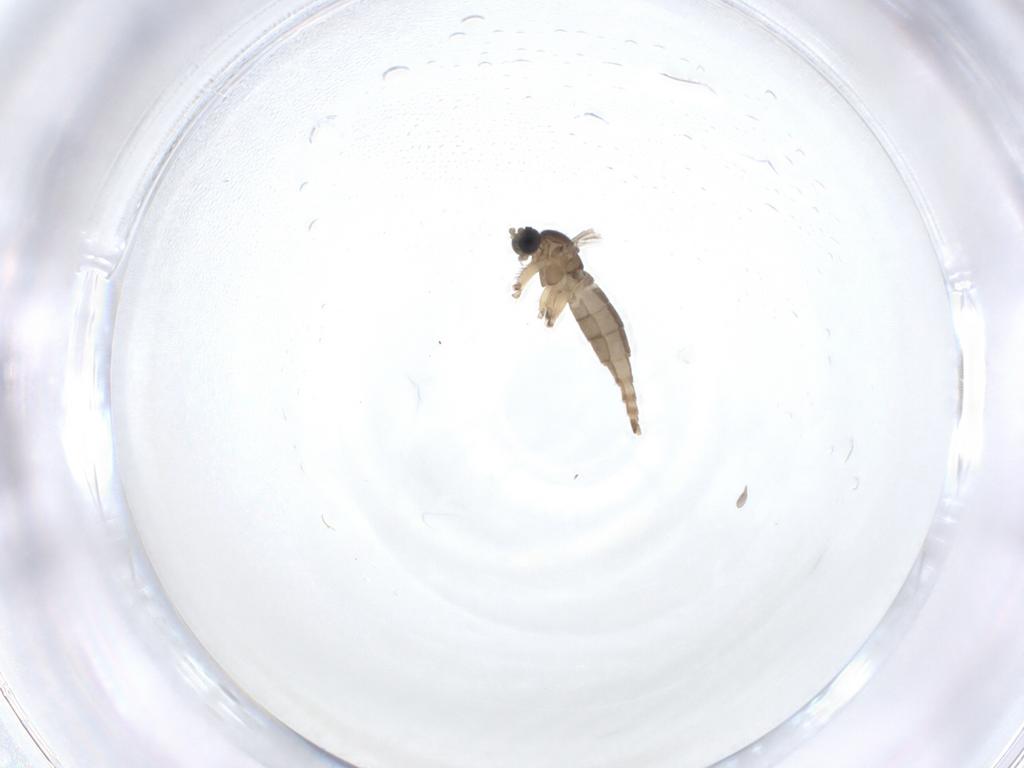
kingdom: Animalia
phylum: Arthropoda
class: Insecta
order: Diptera
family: Sciaridae
